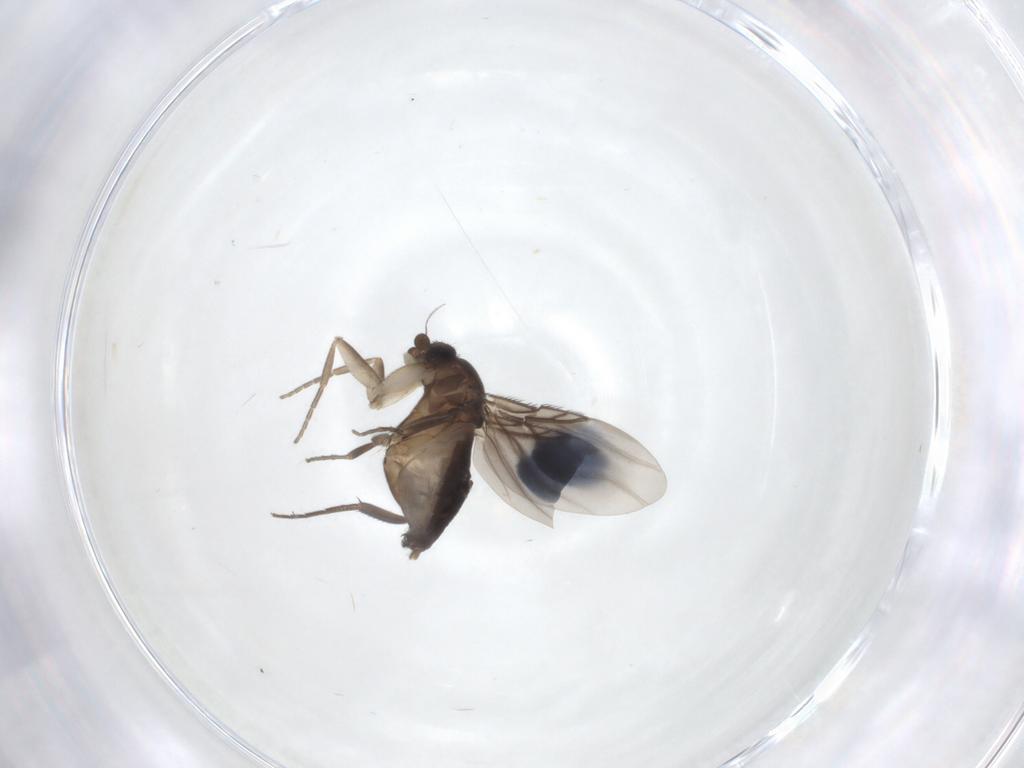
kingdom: Animalia
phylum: Arthropoda
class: Insecta
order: Diptera
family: Phoridae
